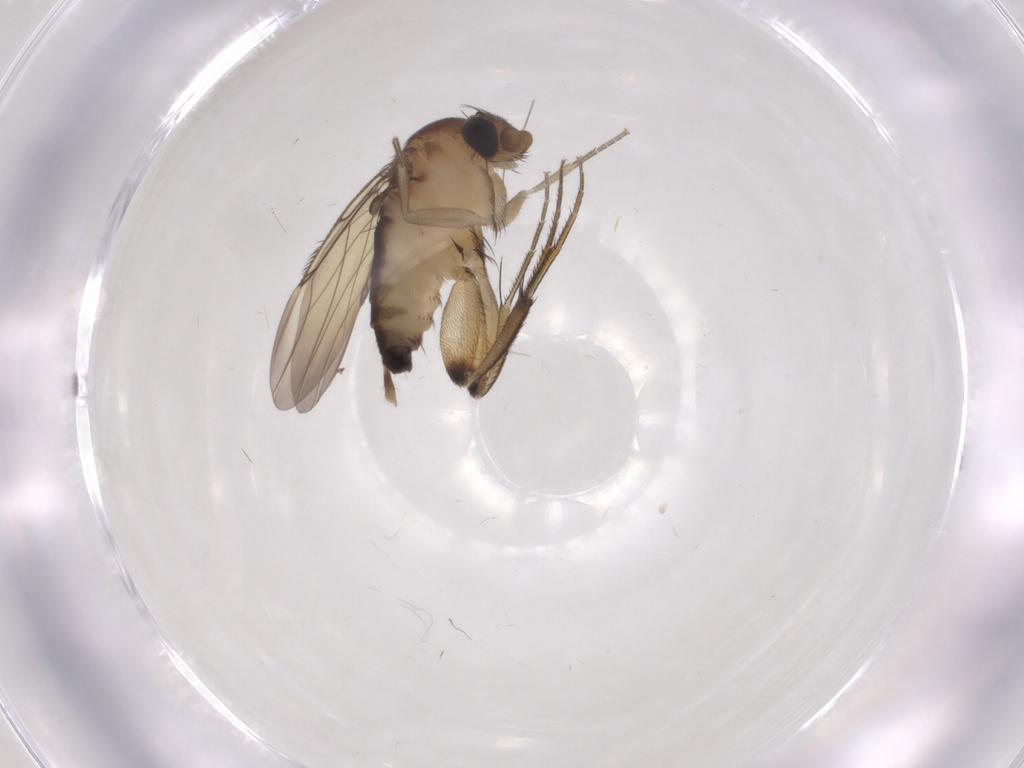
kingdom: Animalia
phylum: Arthropoda
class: Insecta
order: Diptera
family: Phoridae
